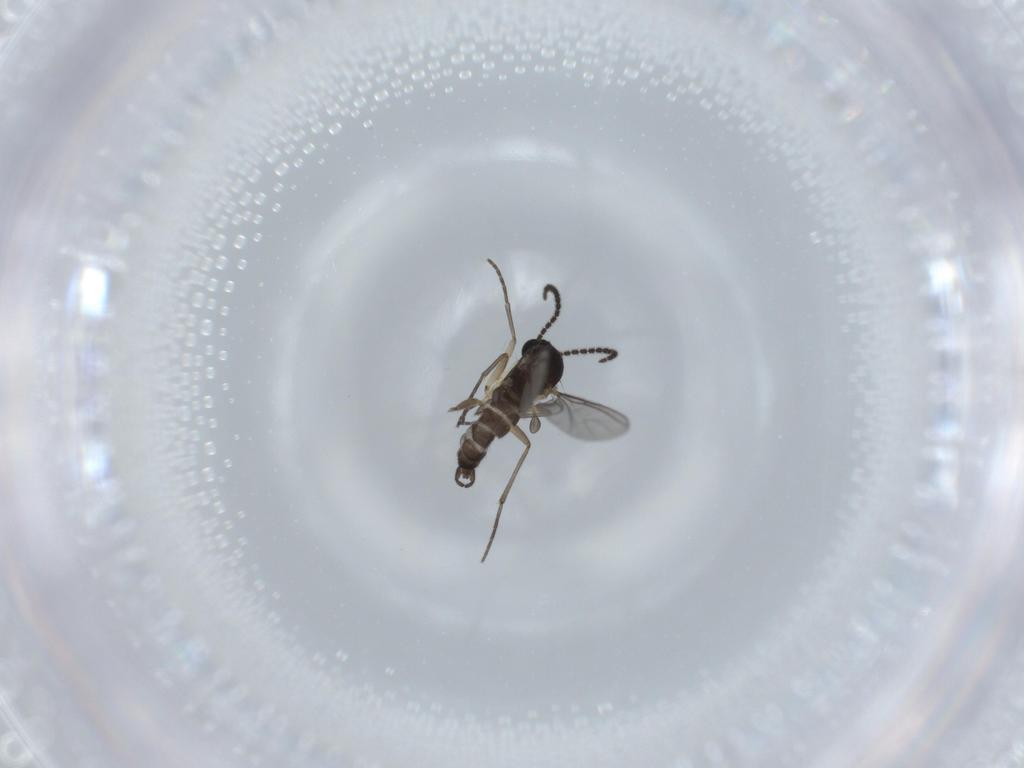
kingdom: Animalia
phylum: Arthropoda
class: Insecta
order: Diptera
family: Sciaridae
